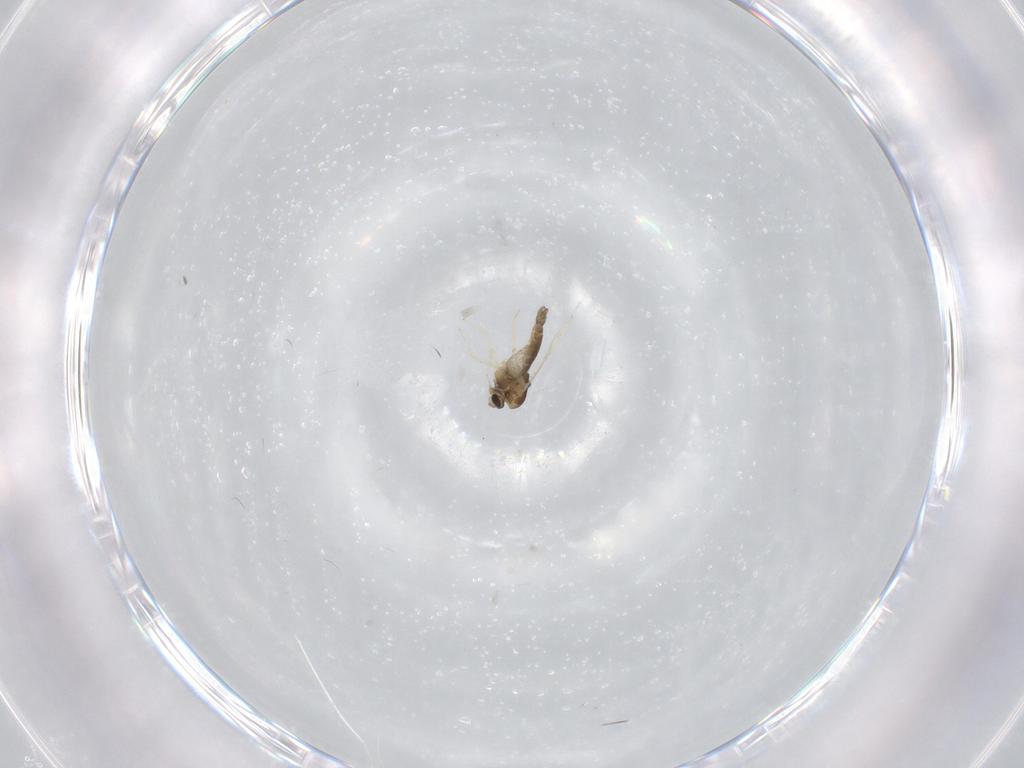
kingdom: Animalia
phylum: Arthropoda
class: Insecta
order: Diptera
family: Chironomidae
